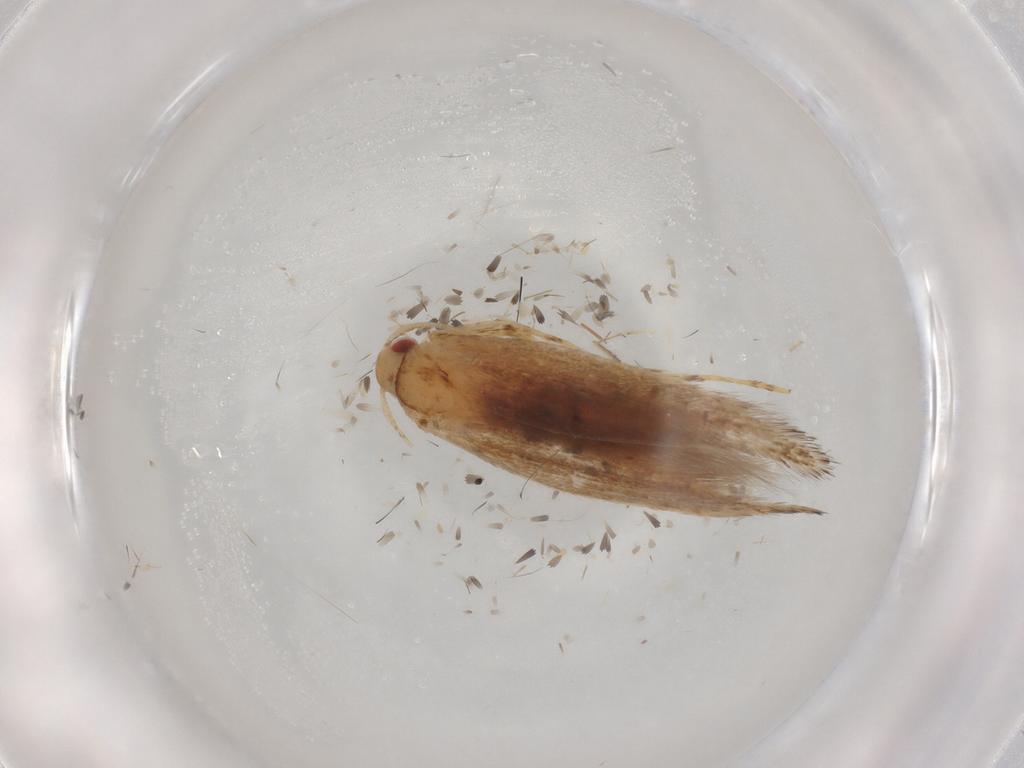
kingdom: Animalia
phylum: Arthropoda
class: Insecta
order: Lepidoptera
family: Cosmopterigidae
